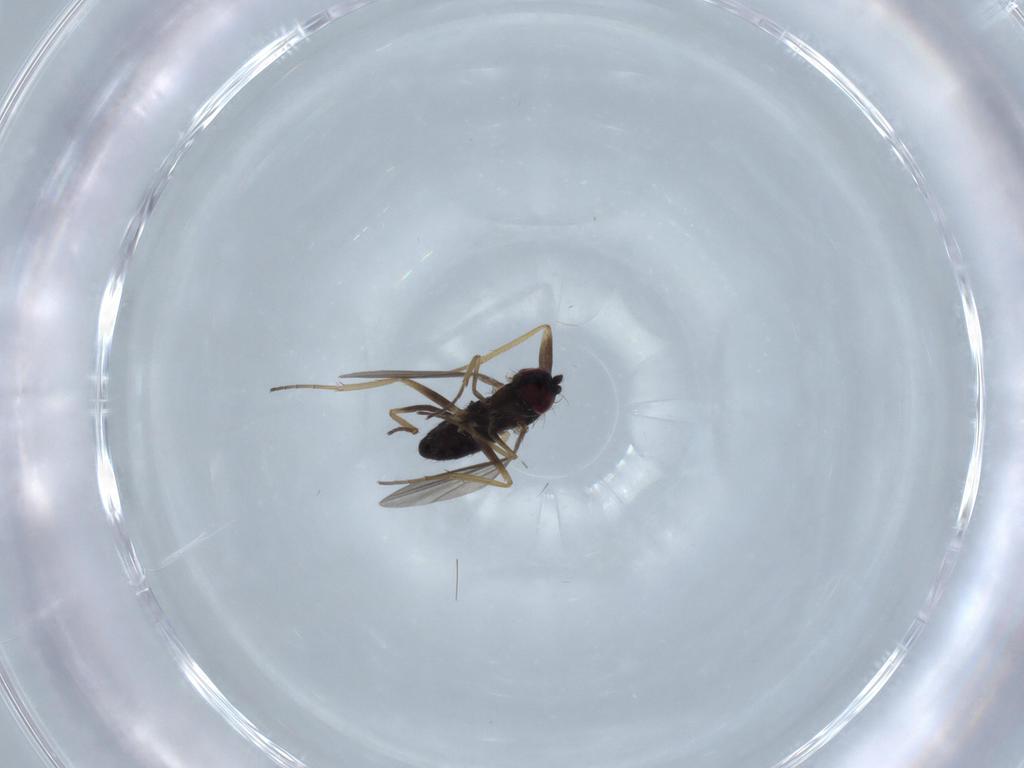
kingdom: Animalia
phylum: Arthropoda
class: Insecta
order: Diptera
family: Dolichopodidae
